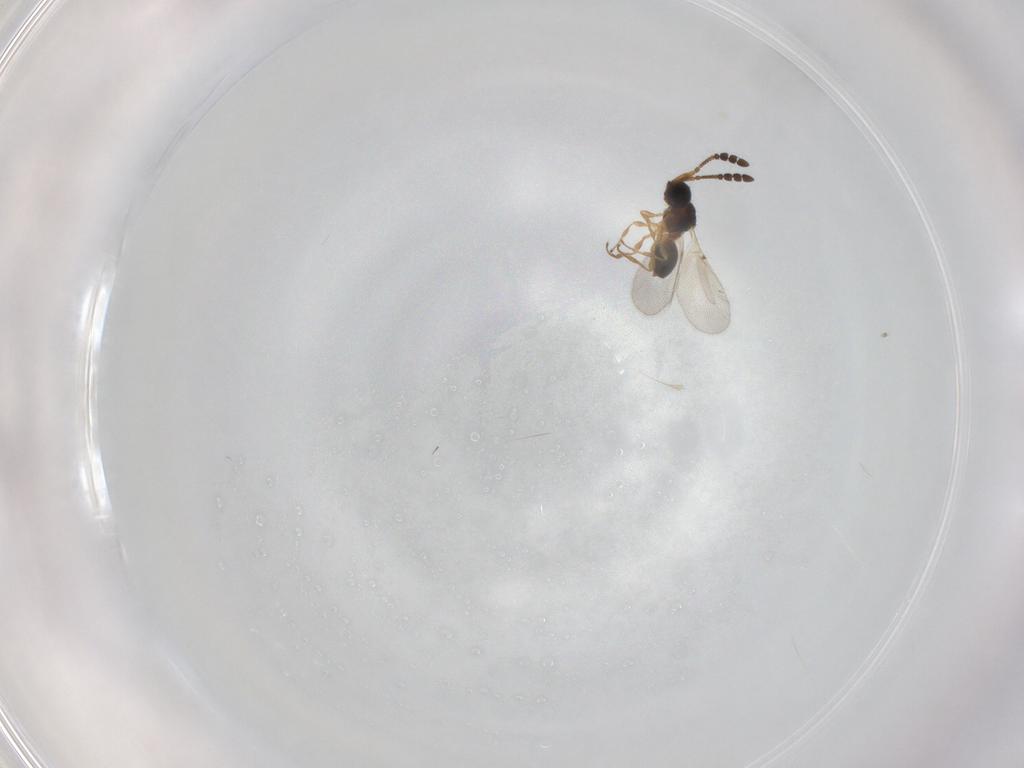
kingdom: Animalia
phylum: Arthropoda
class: Insecta
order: Hymenoptera
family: Diapriidae
